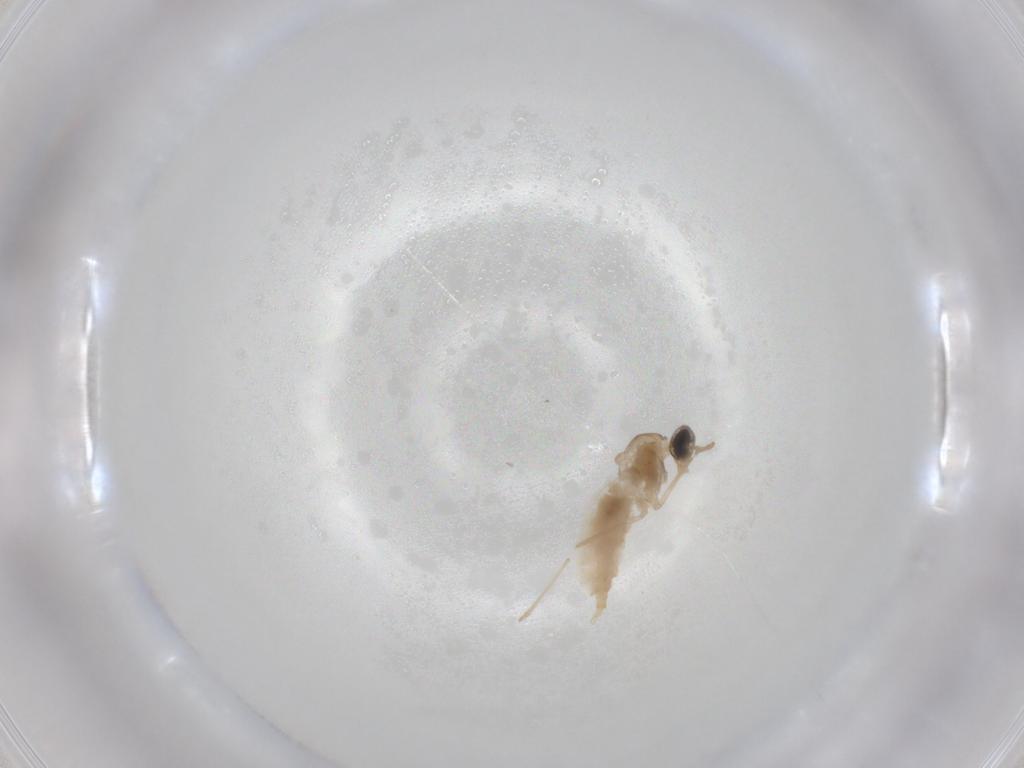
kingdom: Animalia
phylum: Arthropoda
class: Insecta
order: Diptera
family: Cecidomyiidae
